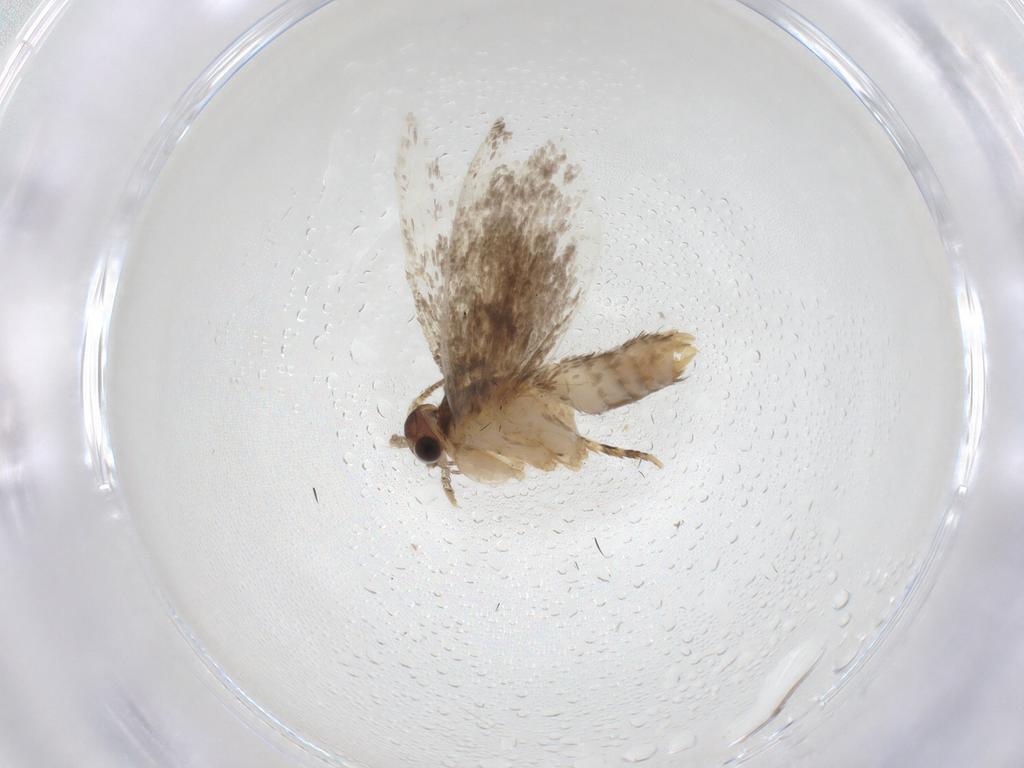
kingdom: Animalia
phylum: Arthropoda
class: Insecta
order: Lepidoptera
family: Dryadaulidae
